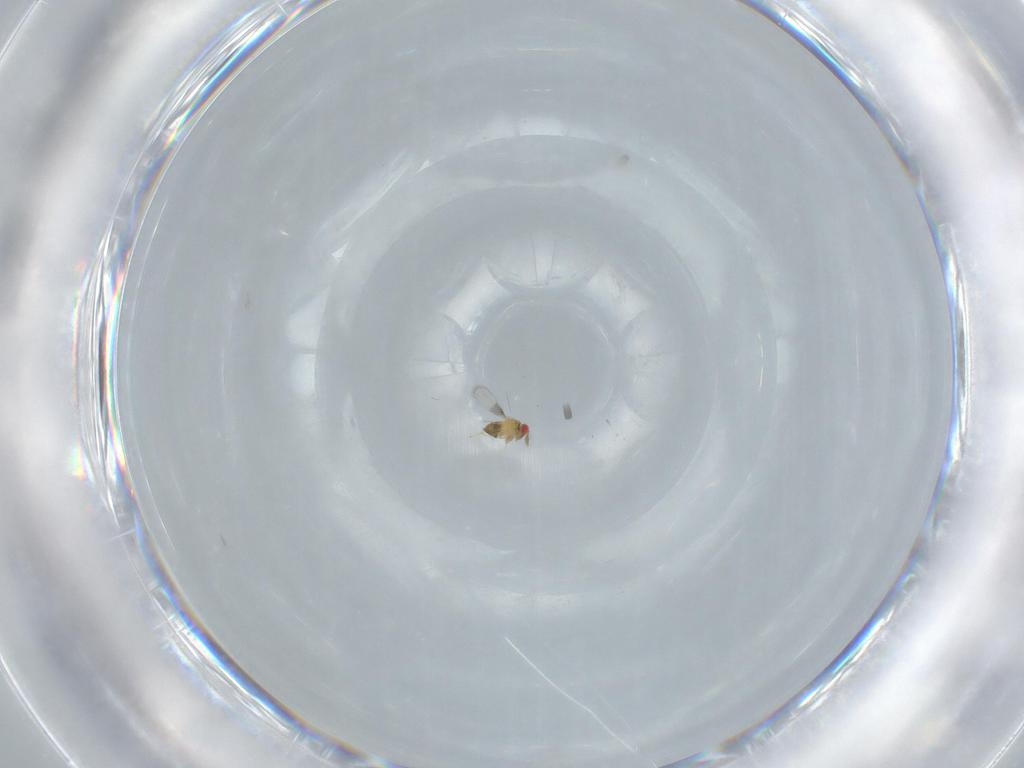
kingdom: Animalia
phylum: Arthropoda
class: Insecta
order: Hymenoptera
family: Trichogrammatidae
